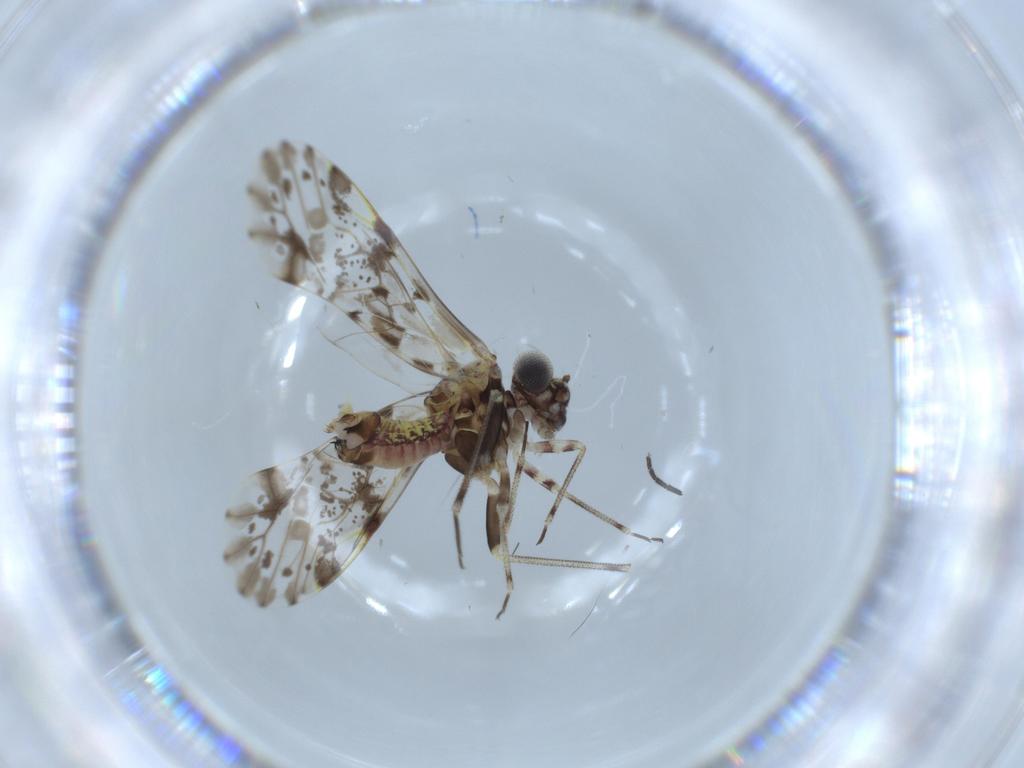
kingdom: Animalia
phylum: Arthropoda
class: Insecta
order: Psocodea
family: Psocidae
